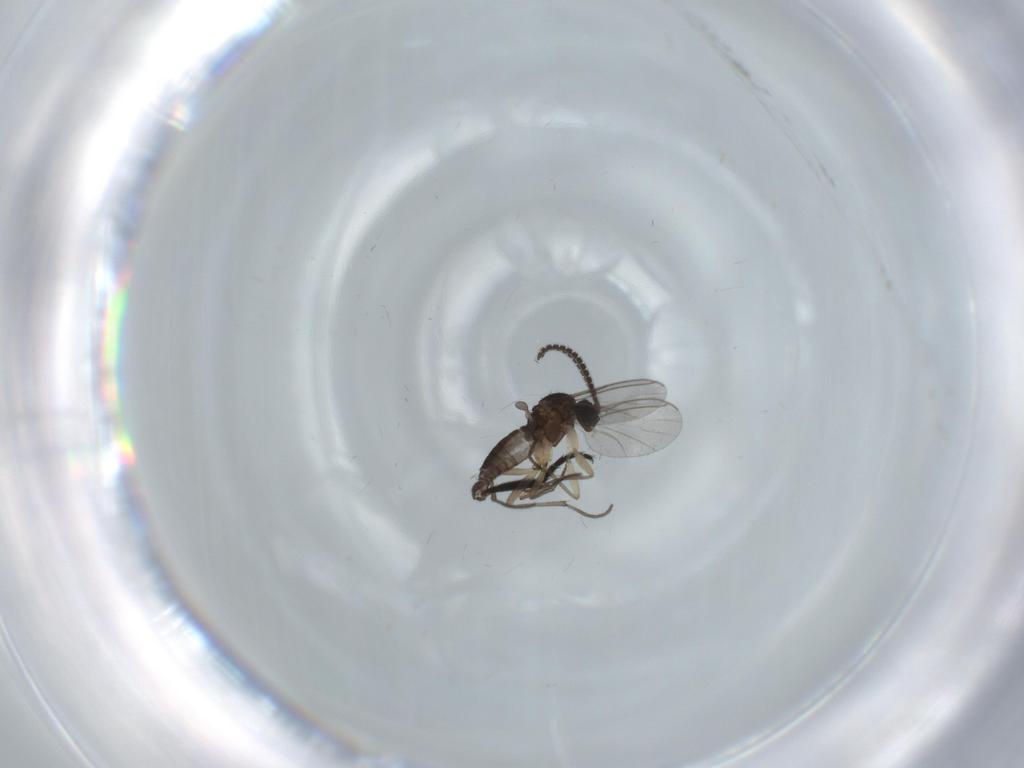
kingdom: Animalia
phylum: Arthropoda
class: Insecta
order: Diptera
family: Sciaridae
